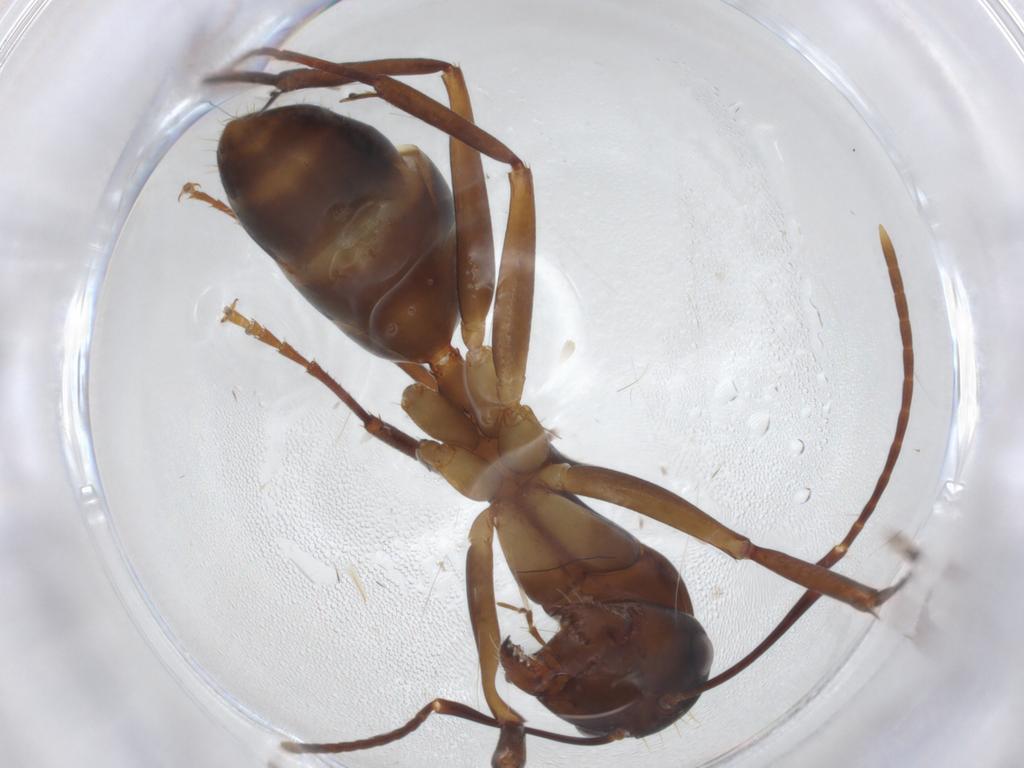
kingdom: Animalia
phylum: Arthropoda
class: Insecta
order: Hymenoptera
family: Formicidae
